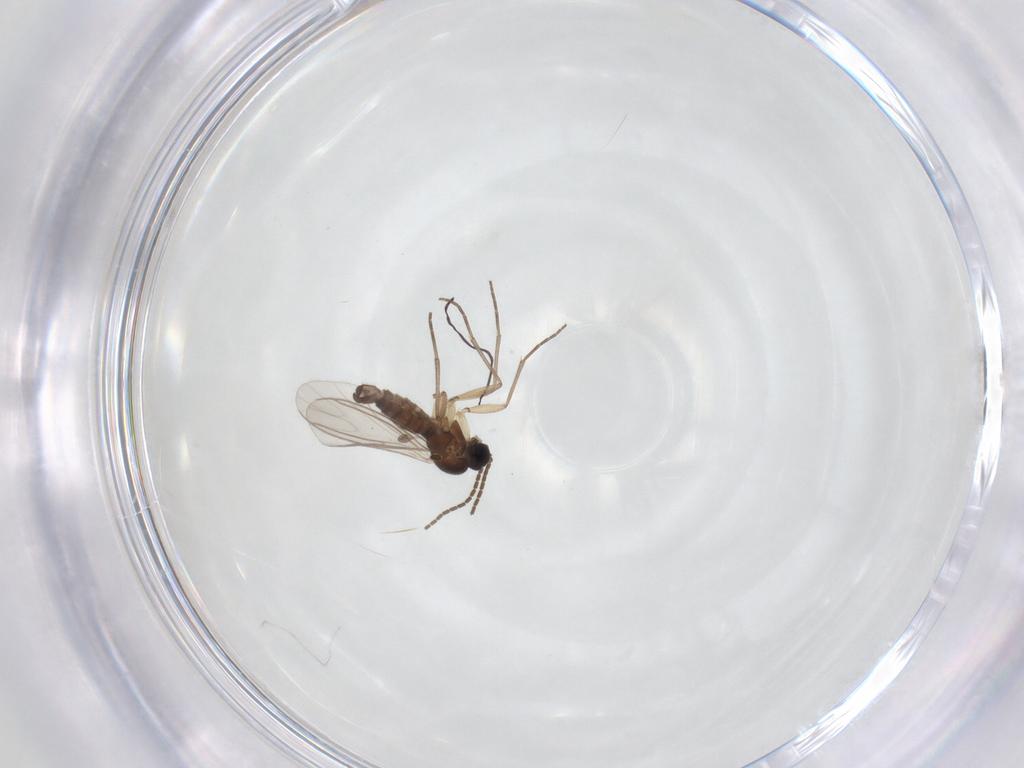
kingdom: Animalia
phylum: Arthropoda
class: Insecta
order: Diptera
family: Sciaridae
